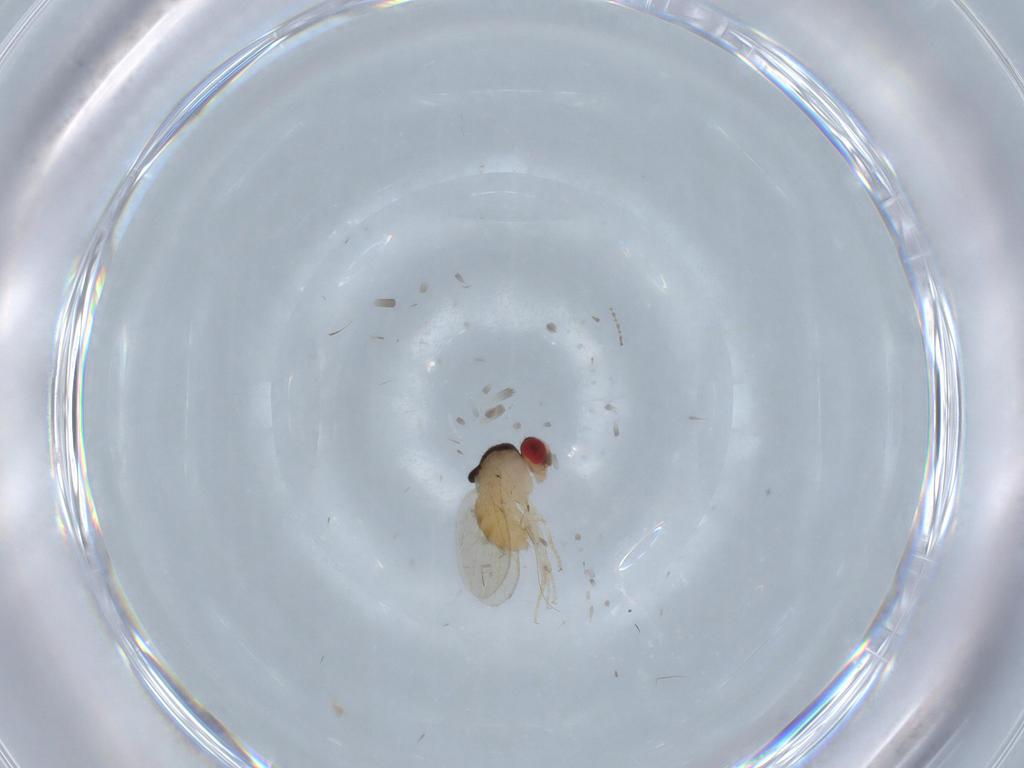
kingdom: Animalia
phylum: Arthropoda
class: Insecta
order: Diptera
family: Drosophilidae
